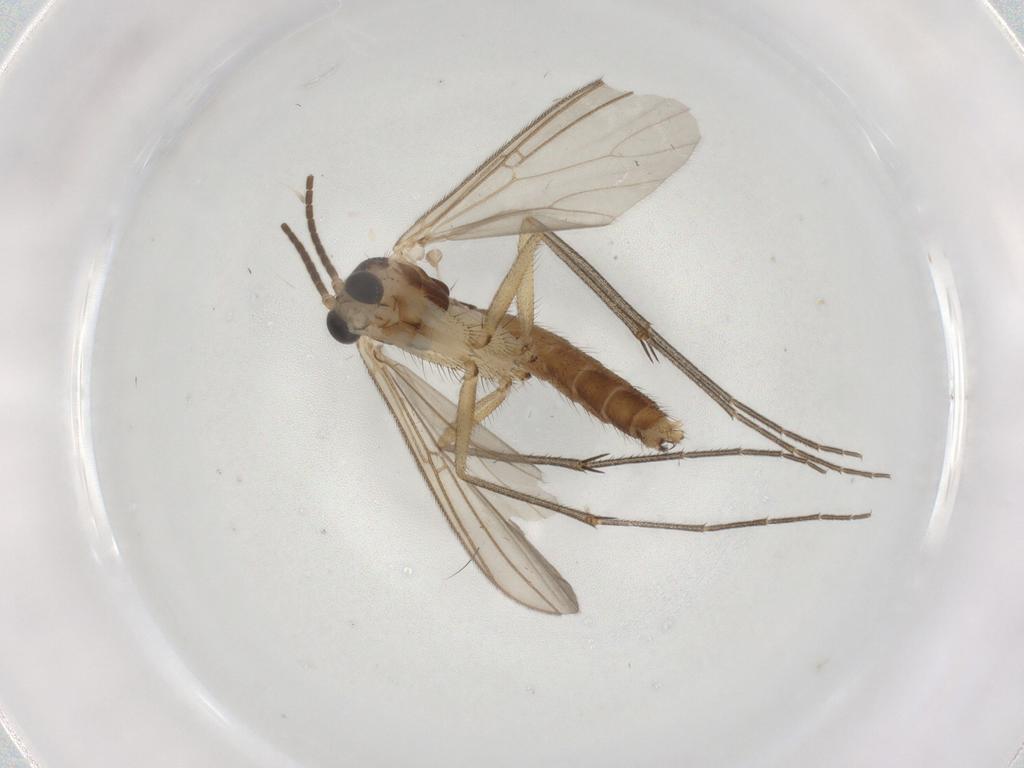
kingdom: Animalia
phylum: Arthropoda
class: Insecta
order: Diptera
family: Mycetophilidae
